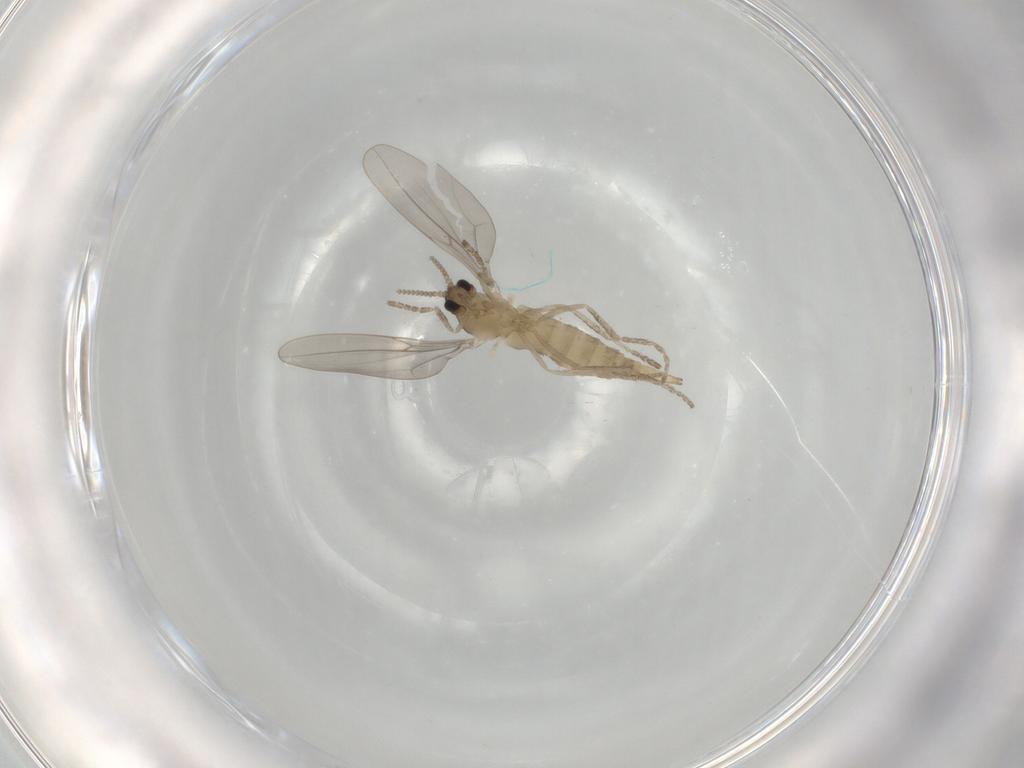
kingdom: Animalia
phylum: Arthropoda
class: Insecta
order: Diptera
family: Cecidomyiidae
